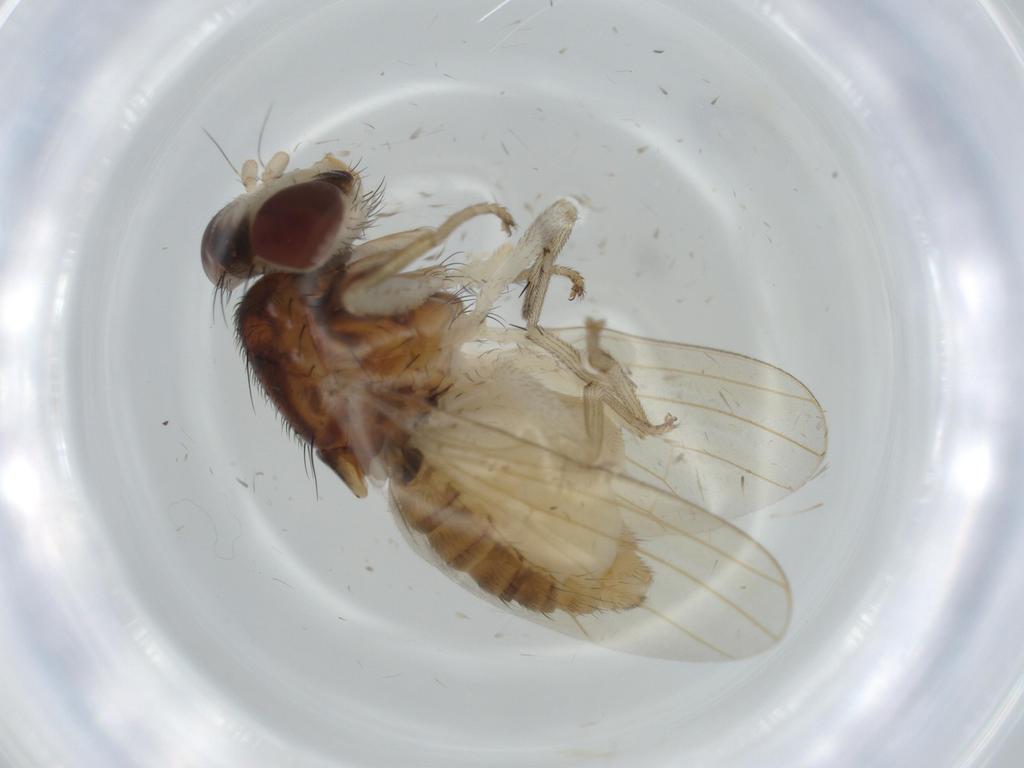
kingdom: Animalia
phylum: Arthropoda
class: Insecta
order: Diptera
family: Lauxaniidae
